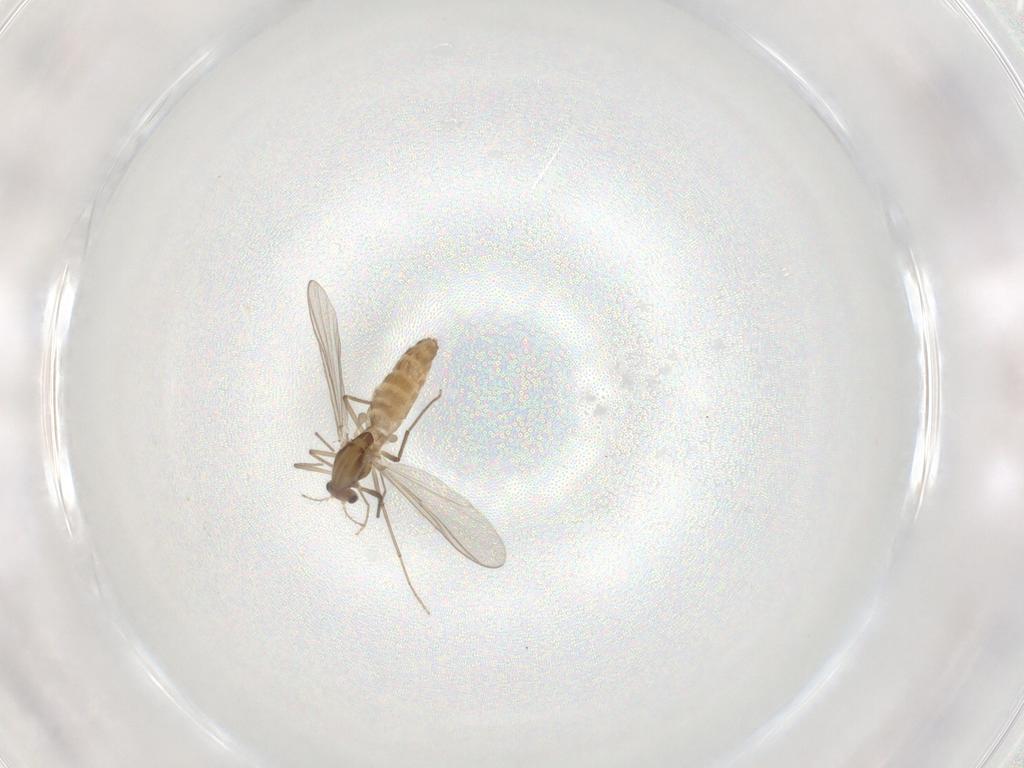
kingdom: Animalia
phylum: Arthropoda
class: Insecta
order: Diptera
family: Chironomidae
